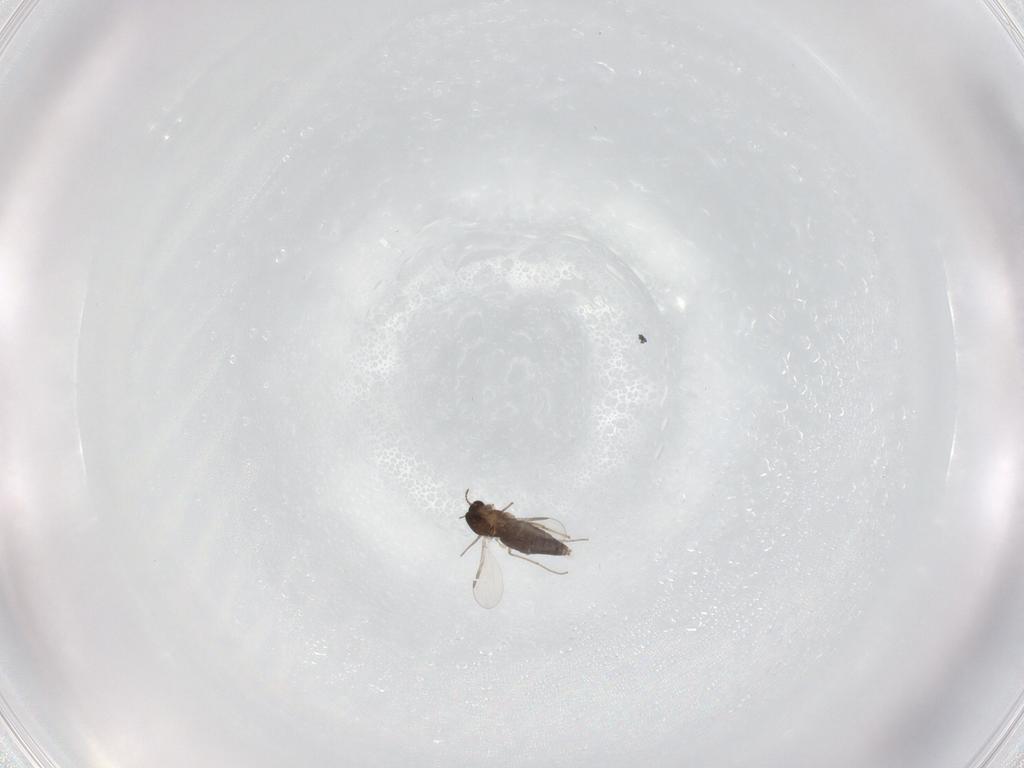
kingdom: Animalia
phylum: Arthropoda
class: Insecta
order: Diptera
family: Chironomidae
